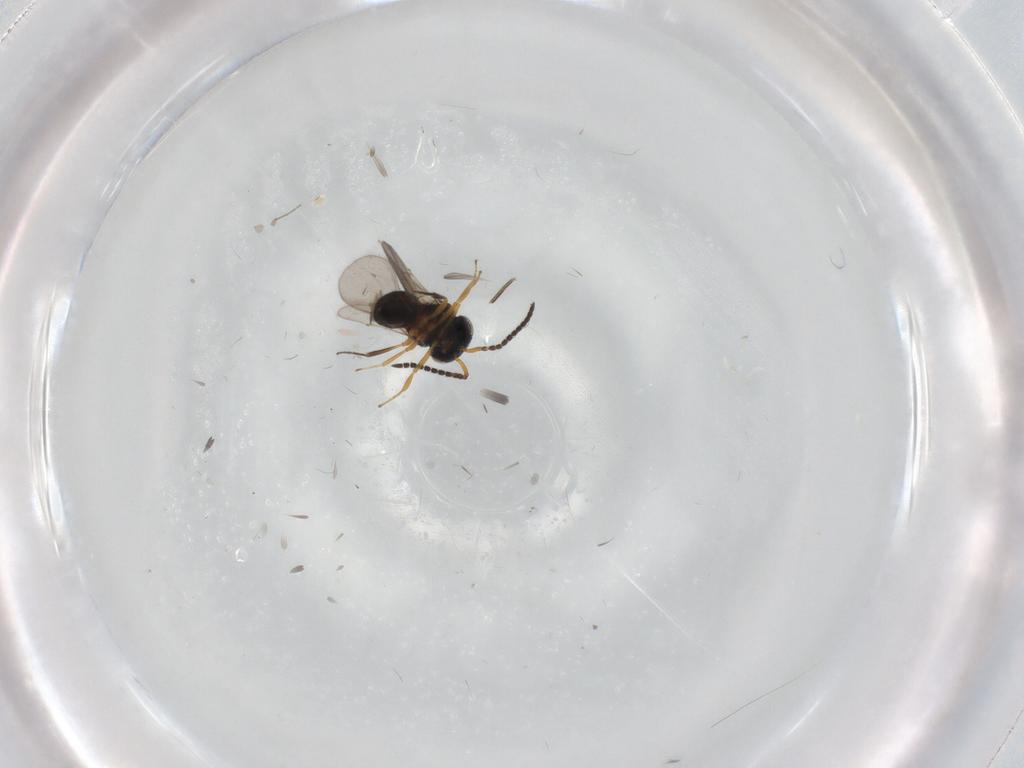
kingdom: Animalia
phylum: Arthropoda
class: Insecta
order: Hymenoptera
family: Scelionidae
